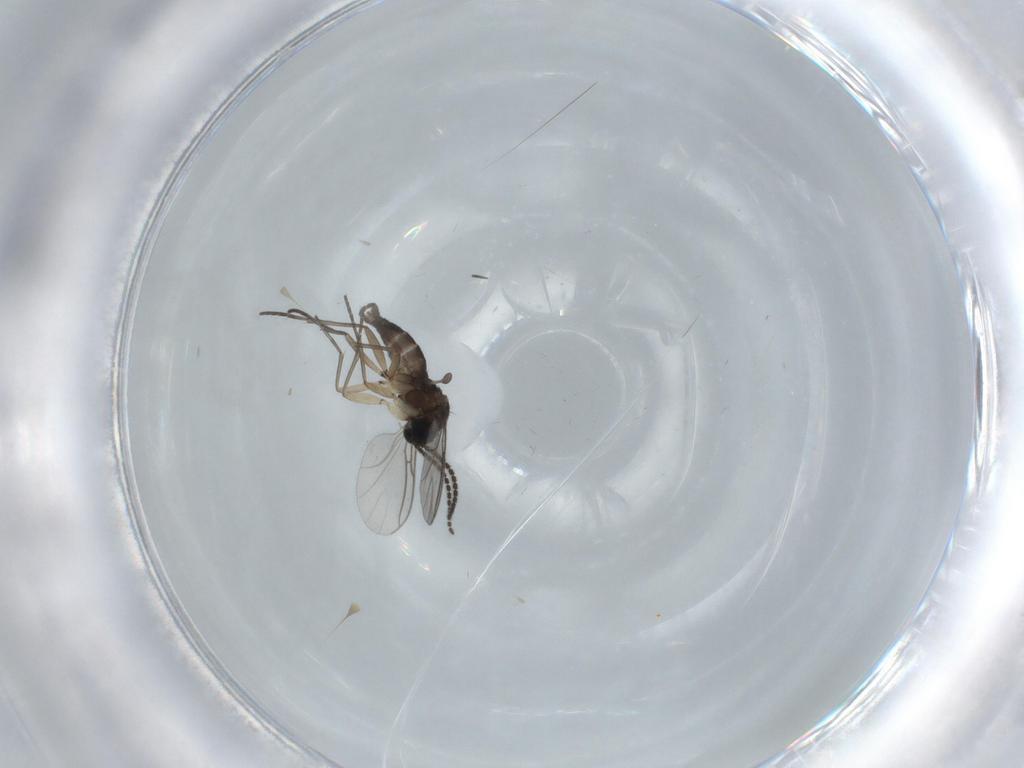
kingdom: Animalia
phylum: Arthropoda
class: Insecta
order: Diptera
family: Sciaridae
